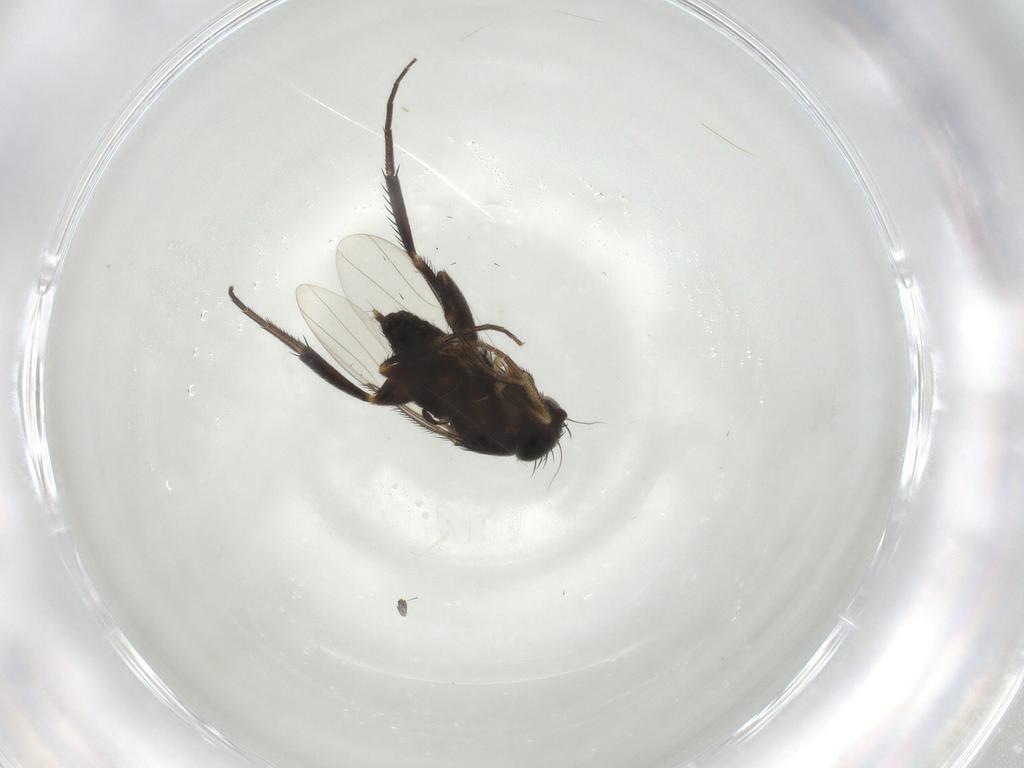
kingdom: Animalia
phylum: Arthropoda
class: Insecta
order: Diptera
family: Phoridae
